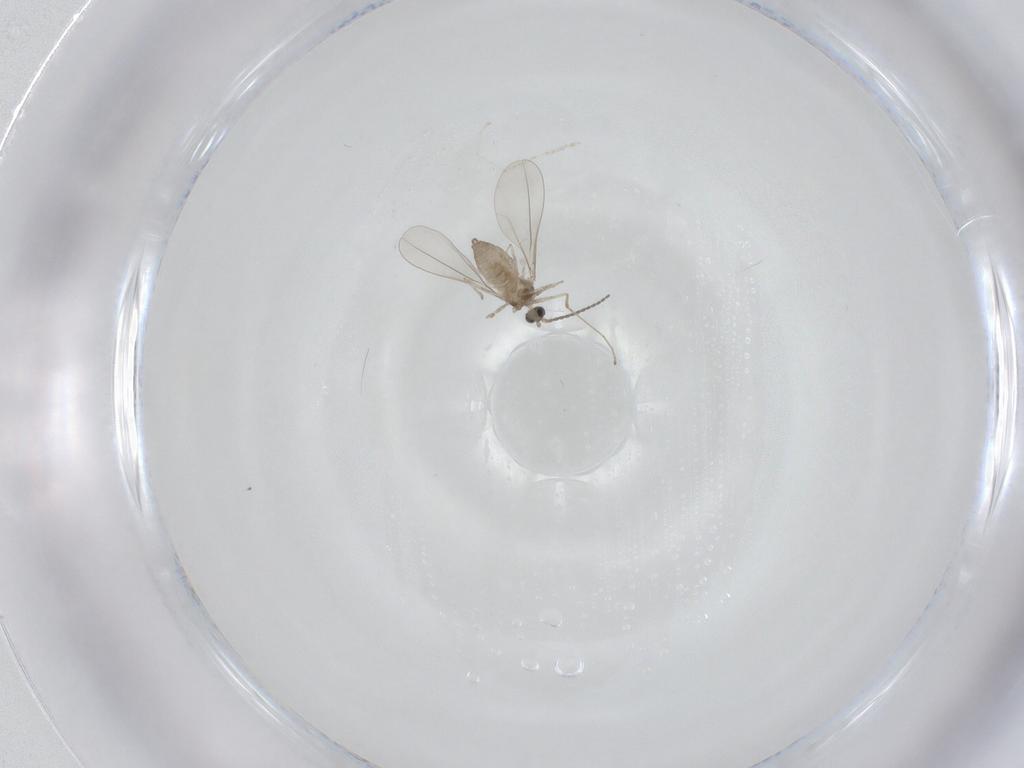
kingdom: Animalia
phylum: Arthropoda
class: Insecta
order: Diptera
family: Cecidomyiidae
